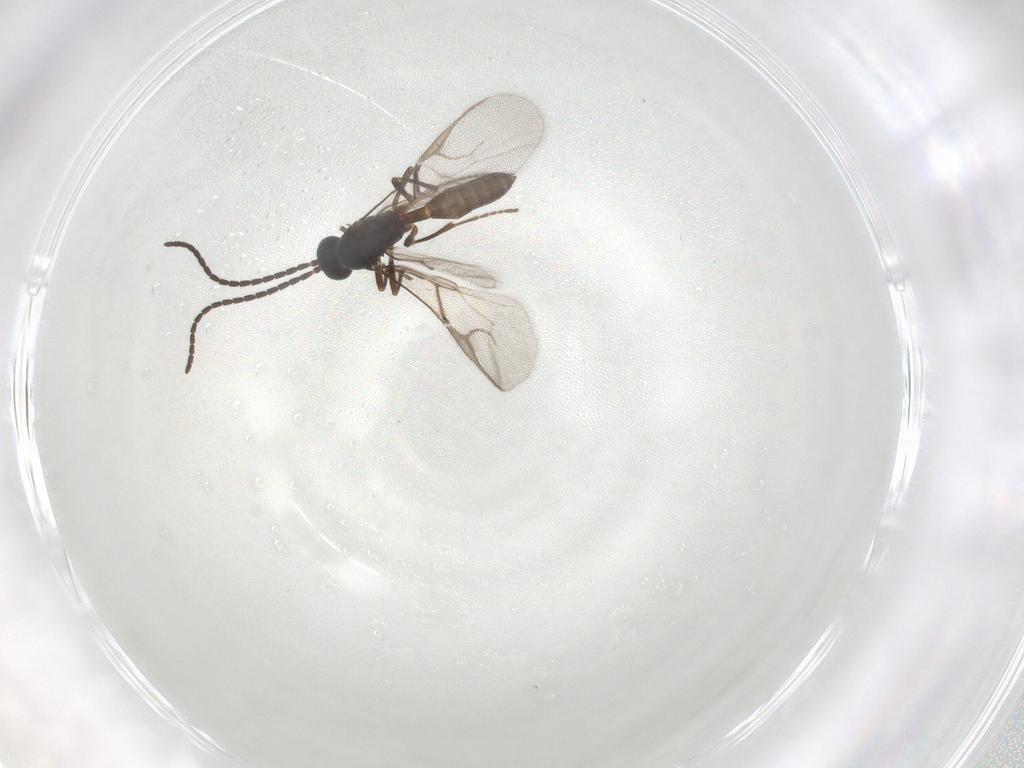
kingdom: Animalia
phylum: Arthropoda
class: Insecta
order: Hymenoptera
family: Braconidae
